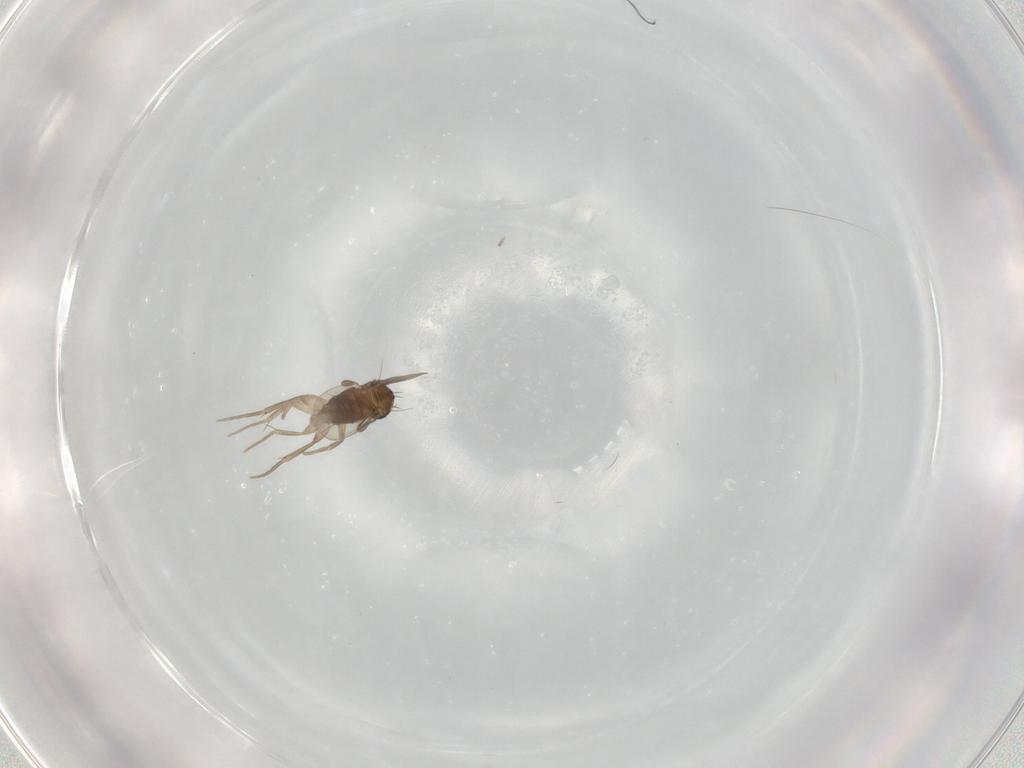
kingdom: Animalia
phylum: Arthropoda
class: Insecta
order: Diptera
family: Phoridae
